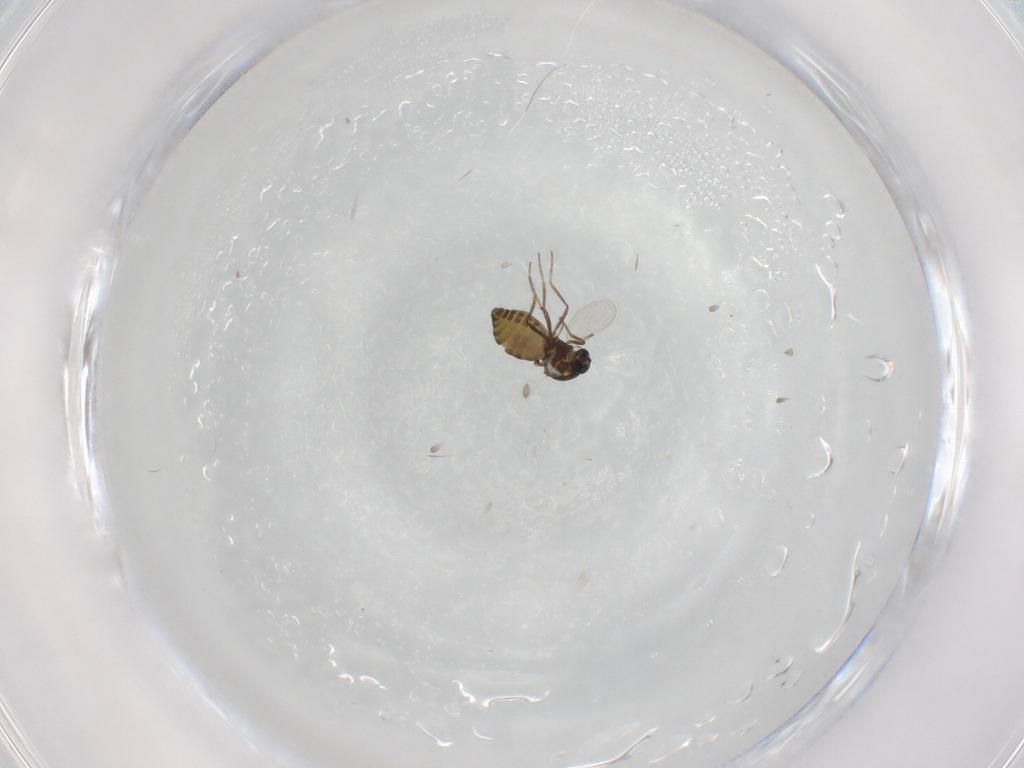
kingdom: Animalia
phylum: Arthropoda
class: Insecta
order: Diptera
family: Ceratopogonidae
